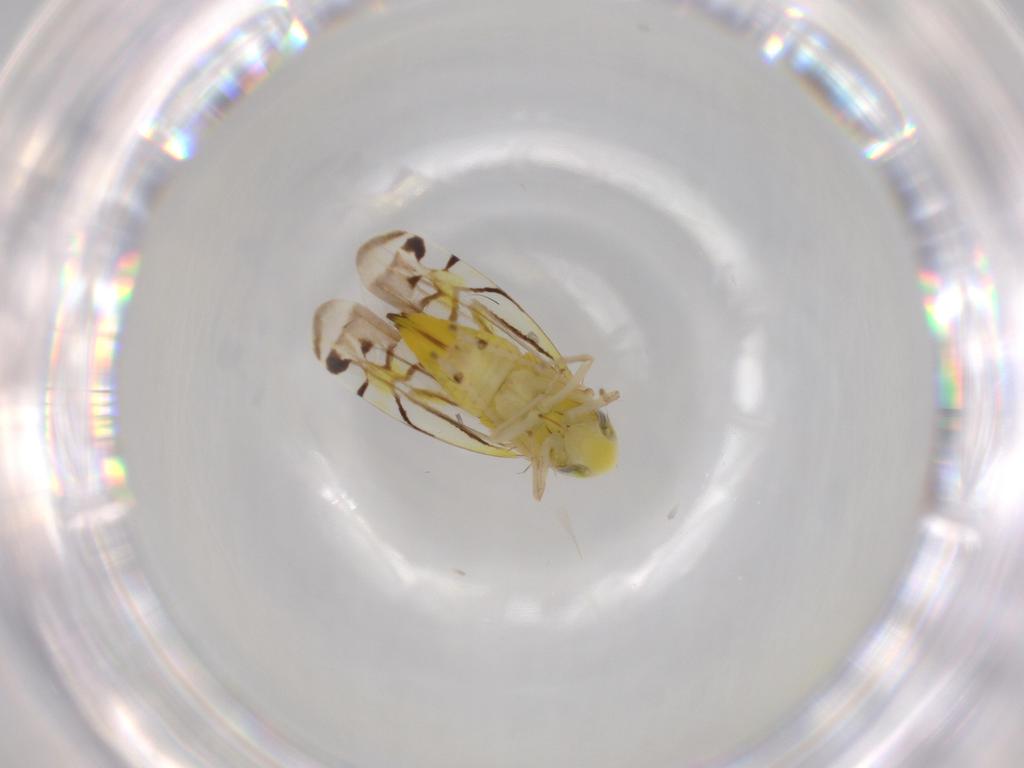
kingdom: Animalia
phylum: Arthropoda
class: Insecta
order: Hemiptera
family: Cicadellidae
